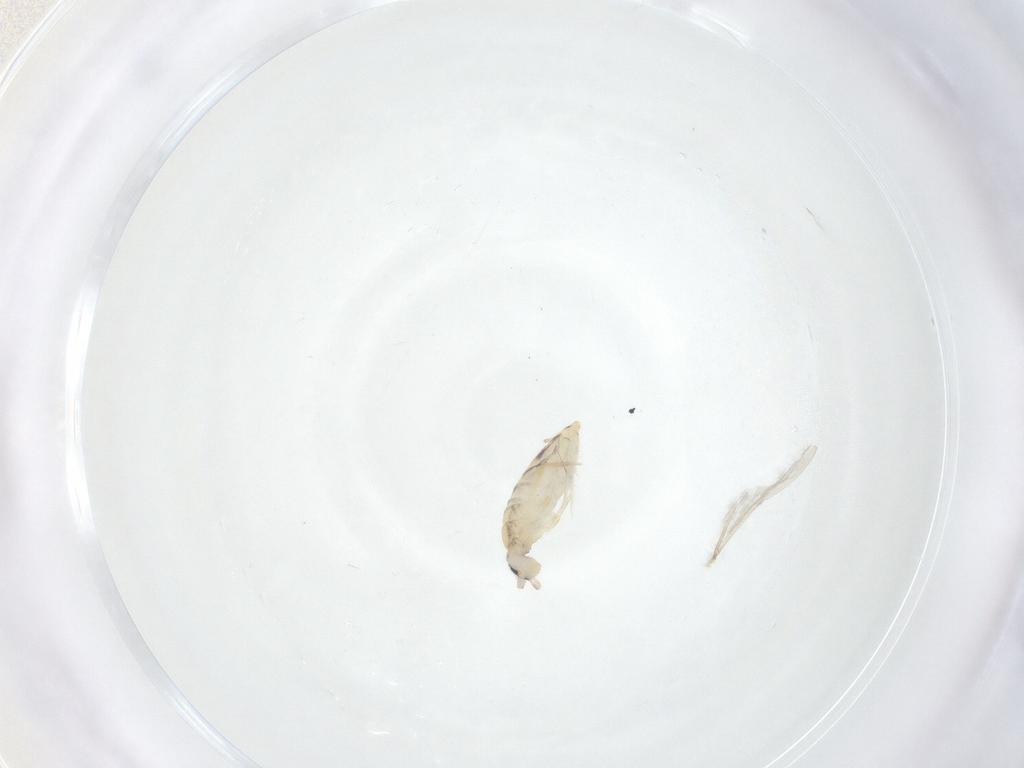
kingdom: Animalia
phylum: Arthropoda
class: Collembola
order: Entomobryomorpha
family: Entomobryidae
